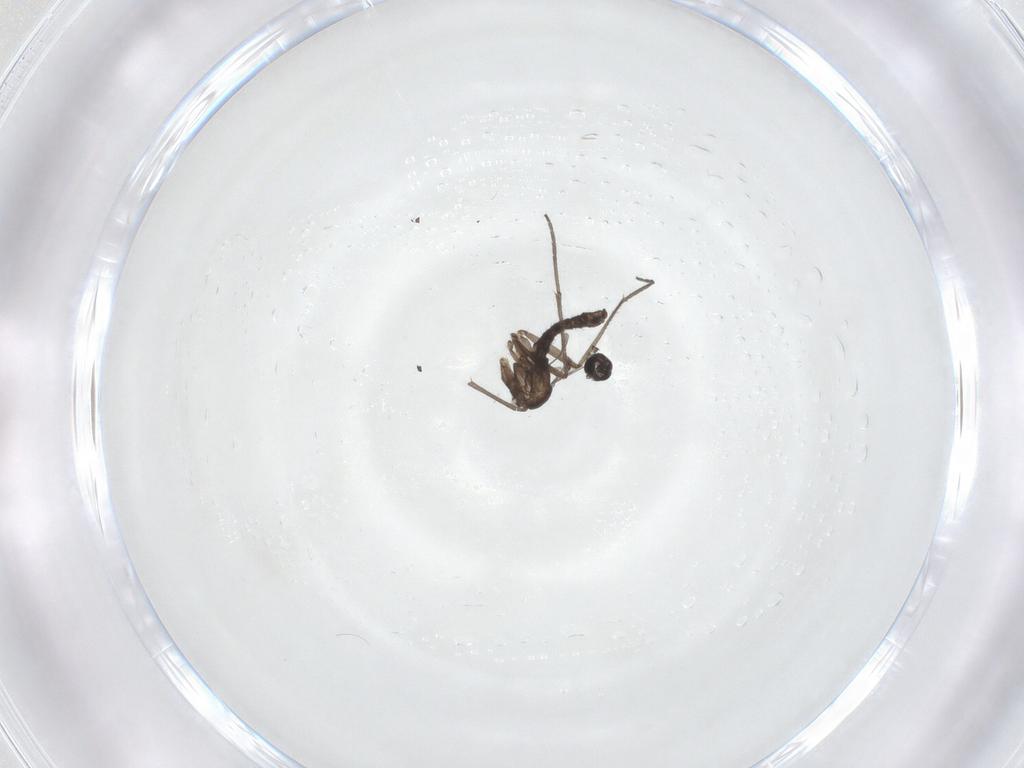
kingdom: Animalia
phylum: Arthropoda
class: Insecta
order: Diptera
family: Sciaridae
